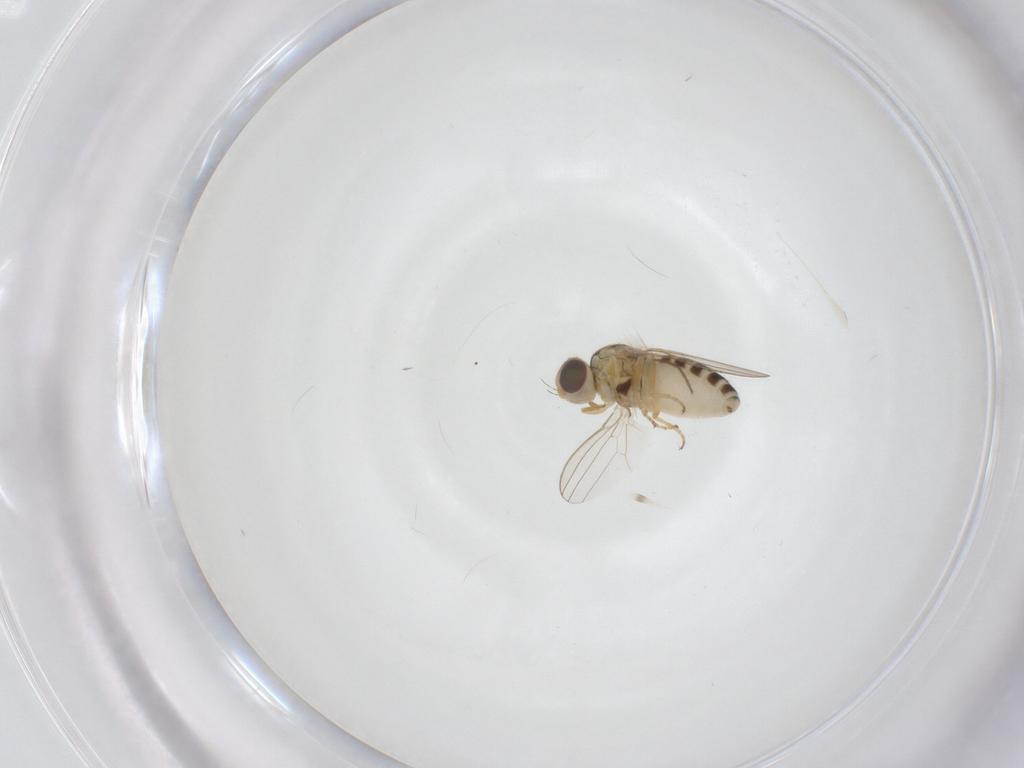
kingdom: Animalia
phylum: Arthropoda
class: Insecta
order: Diptera
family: Chyromyidae
